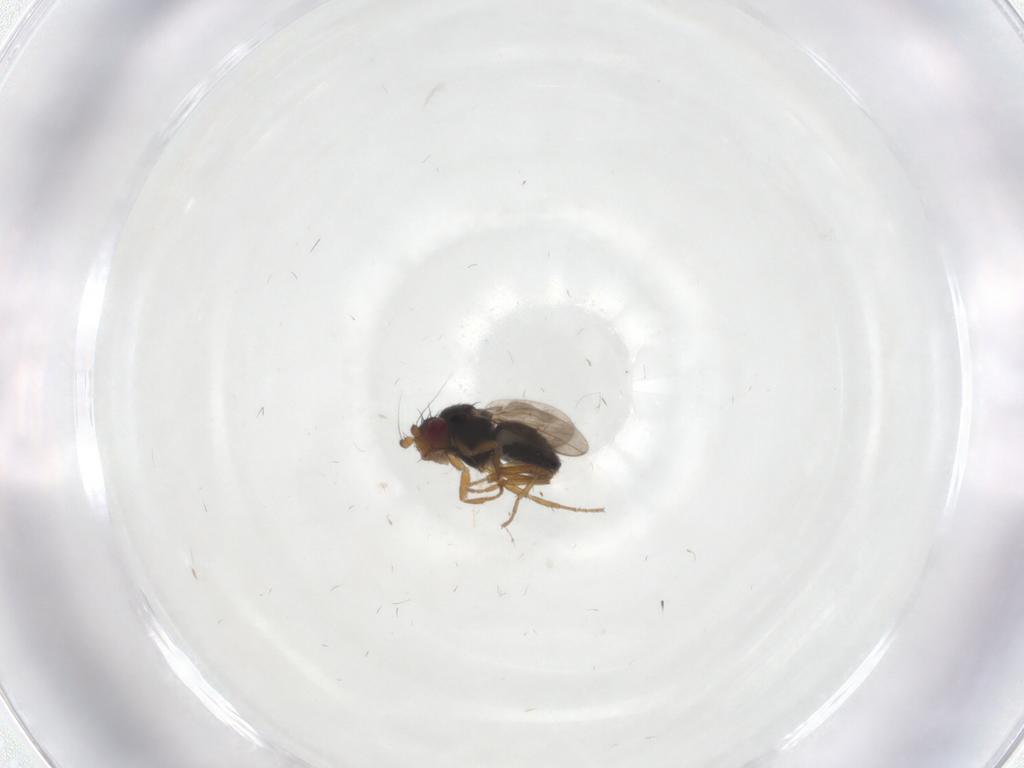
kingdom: Animalia
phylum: Arthropoda
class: Insecta
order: Diptera
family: Sphaeroceridae
